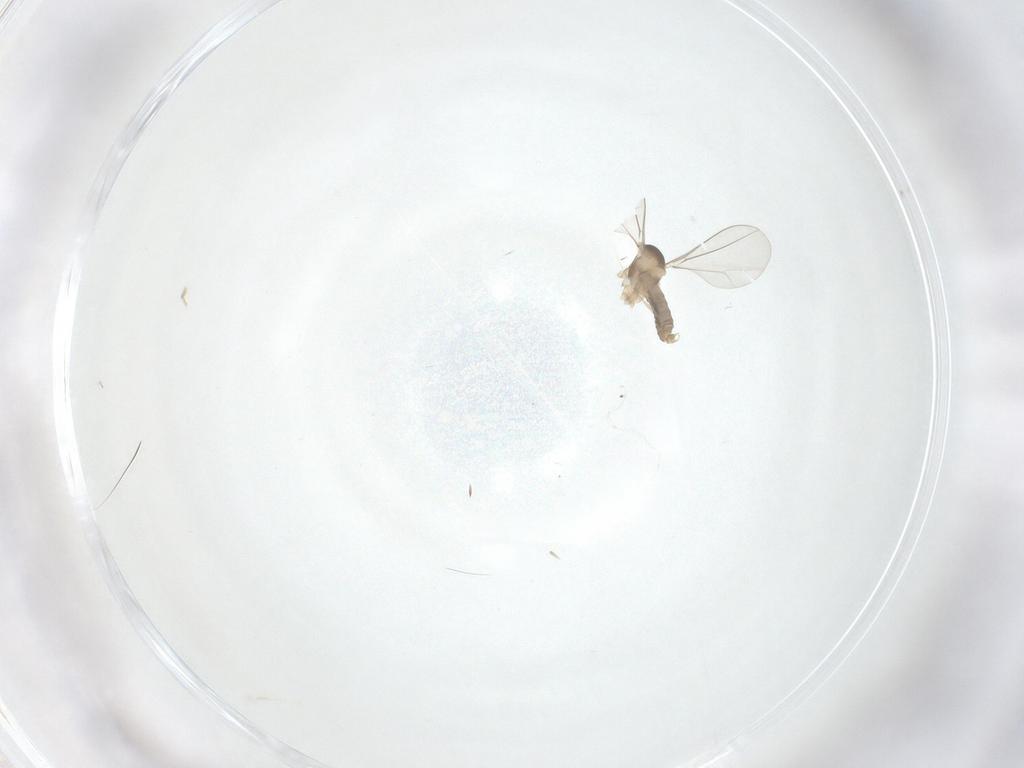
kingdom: Animalia
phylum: Arthropoda
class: Insecta
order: Diptera
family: Cecidomyiidae
